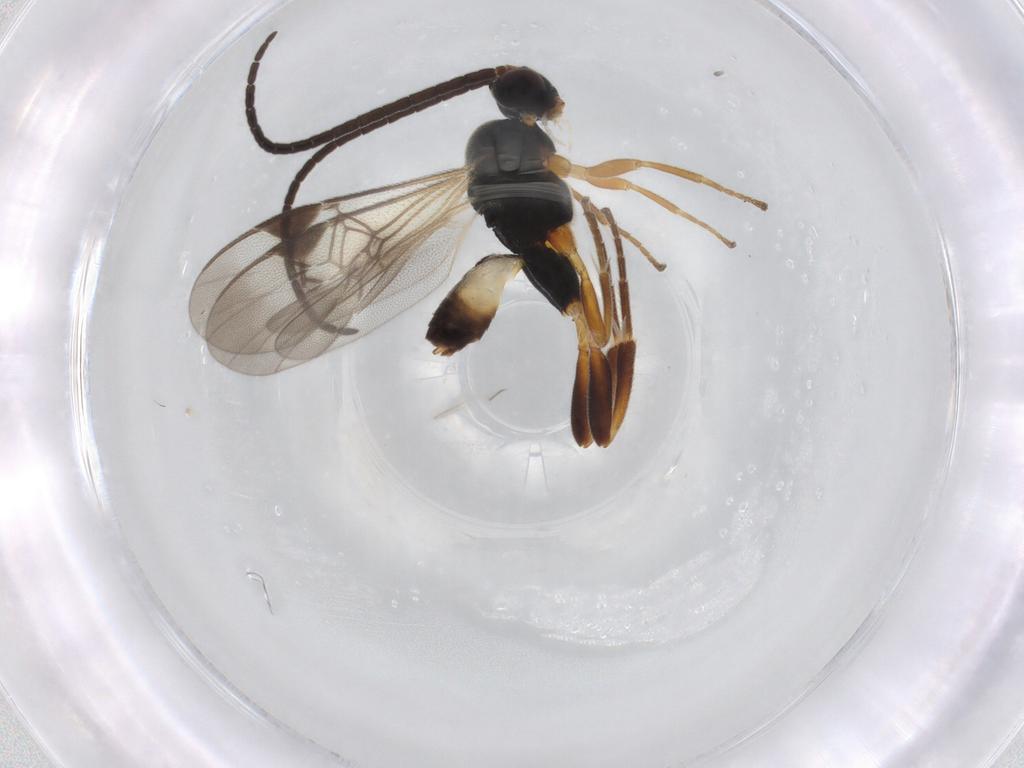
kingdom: Animalia
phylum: Arthropoda
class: Insecta
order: Hymenoptera
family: Braconidae
